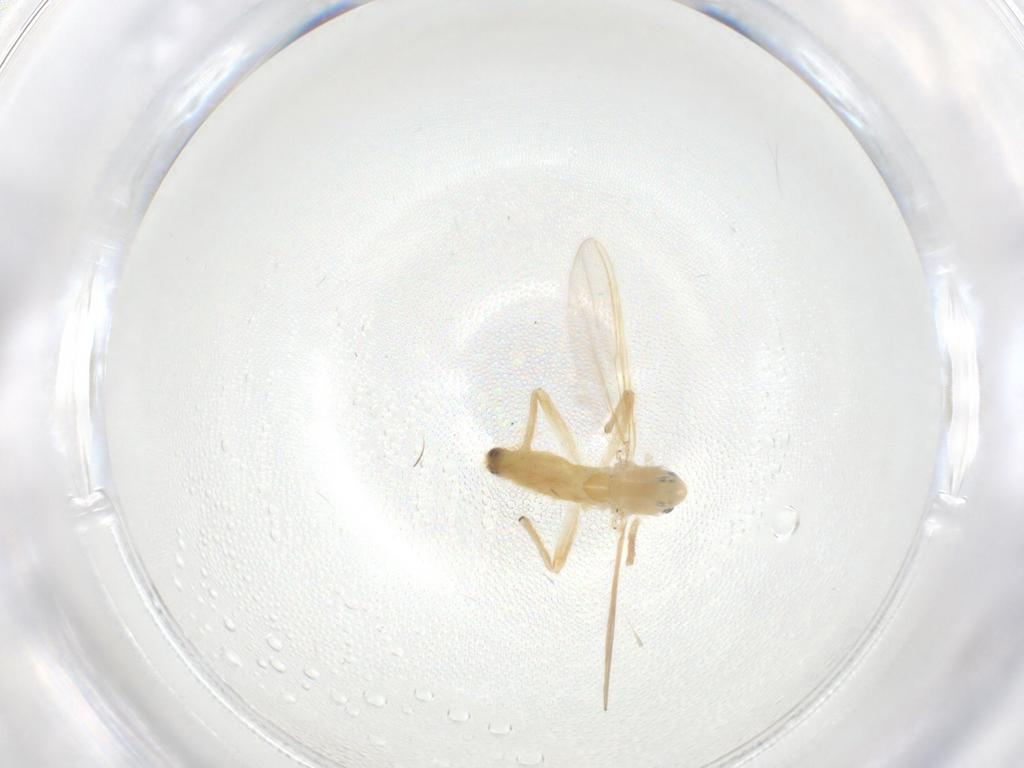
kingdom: Animalia
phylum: Arthropoda
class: Insecta
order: Diptera
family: Chironomidae
